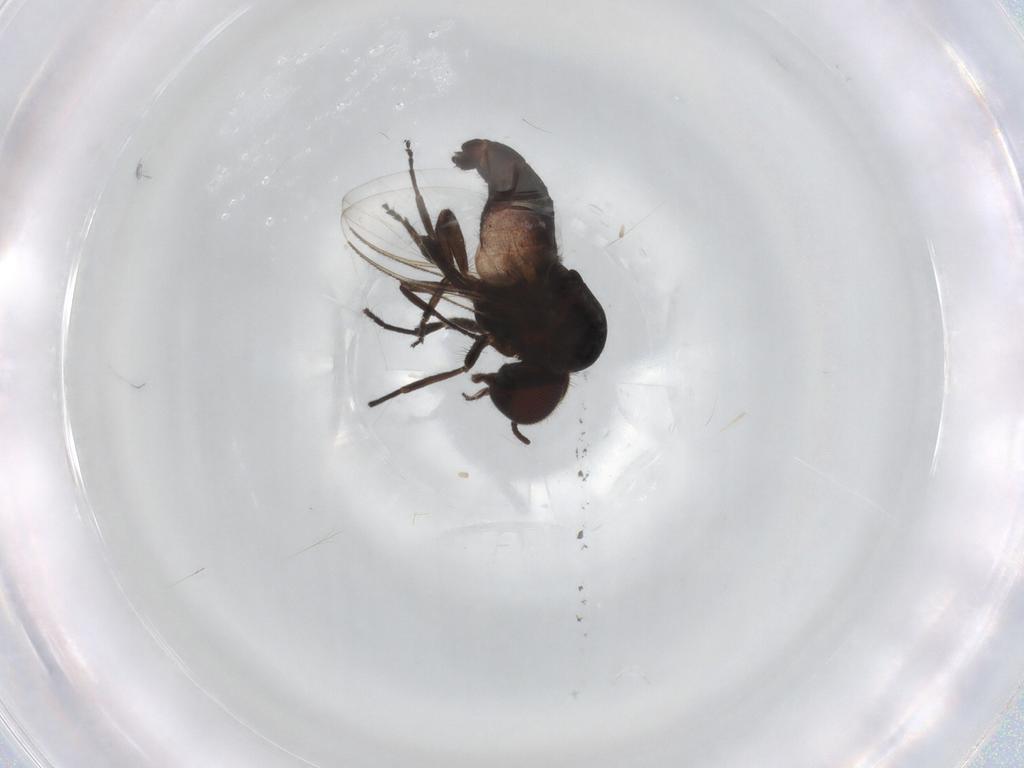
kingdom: Animalia
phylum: Arthropoda
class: Insecta
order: Diptera
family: Simuliidae
